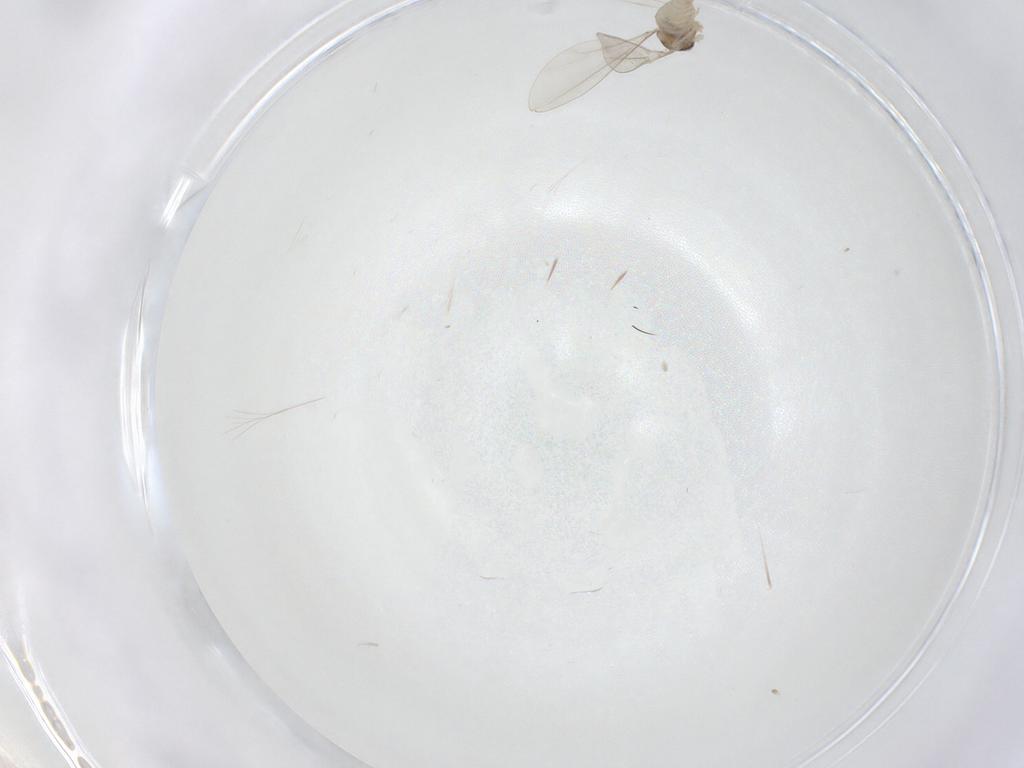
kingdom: Animalia
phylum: Arthropoda
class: Insecta
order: Diptera
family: Cecidomyiidae
